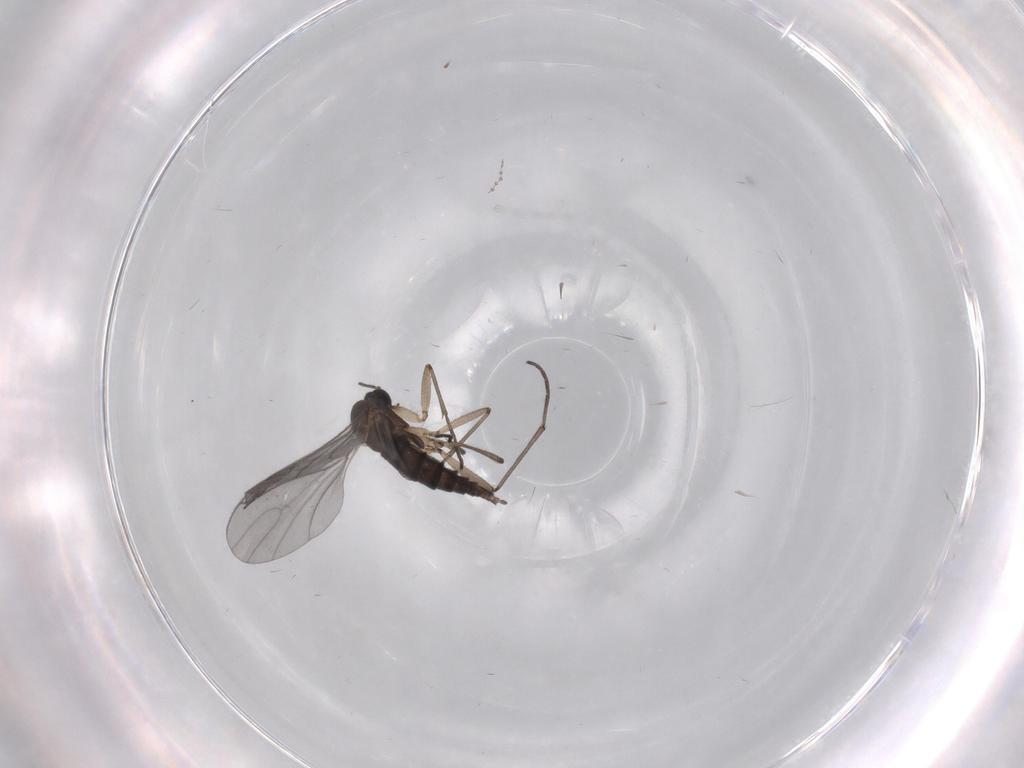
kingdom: Animalia
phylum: Arthropoda
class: Insecta
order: Diptera
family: Sciaridae
